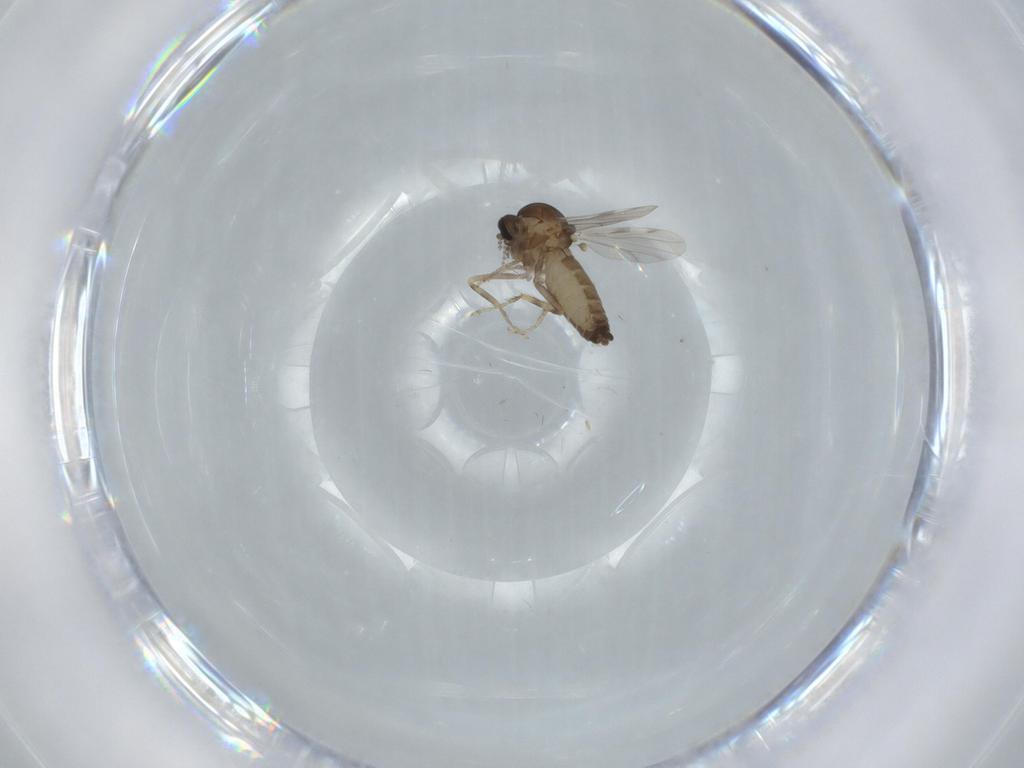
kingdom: Animalia
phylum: Arthropoda
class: Insecta
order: Diptera
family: Ceratopogonidae
